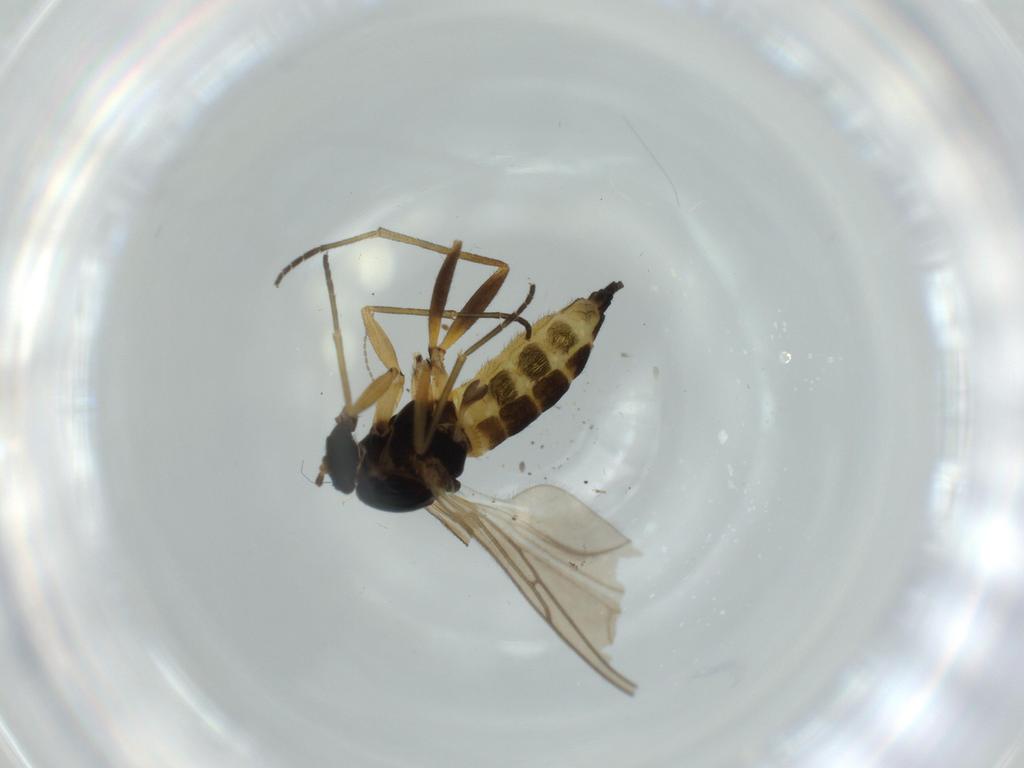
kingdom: Animalia
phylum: Arthropoda
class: Insecta
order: Diptera
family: Sciaridae
